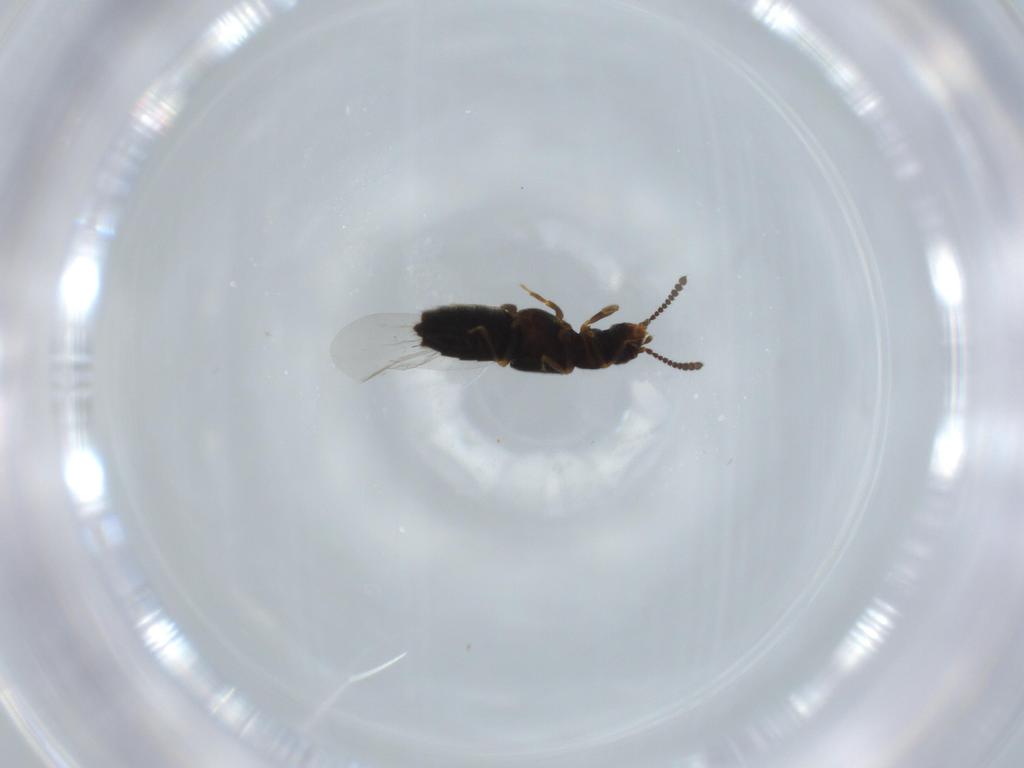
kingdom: Animalia
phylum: Arthropoda
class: Insecta
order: Coleoptera
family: Staphylinidae
